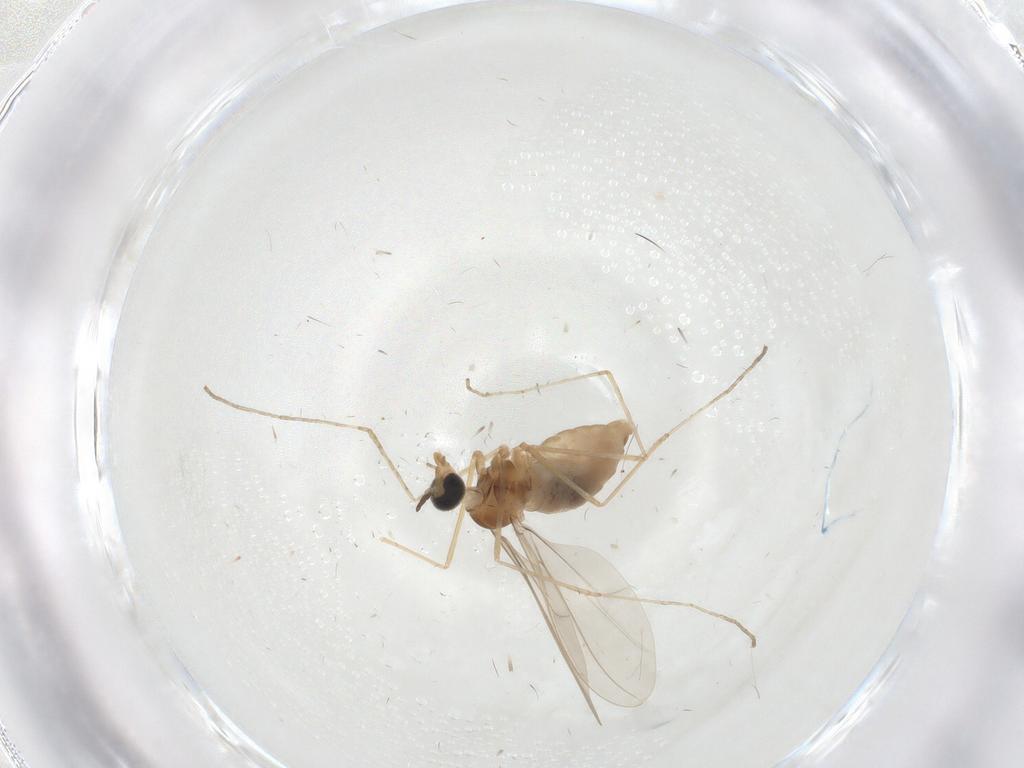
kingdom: Animalia
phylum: Arthropoda
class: Insecta
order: Diptera
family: Cecidomyiidae
